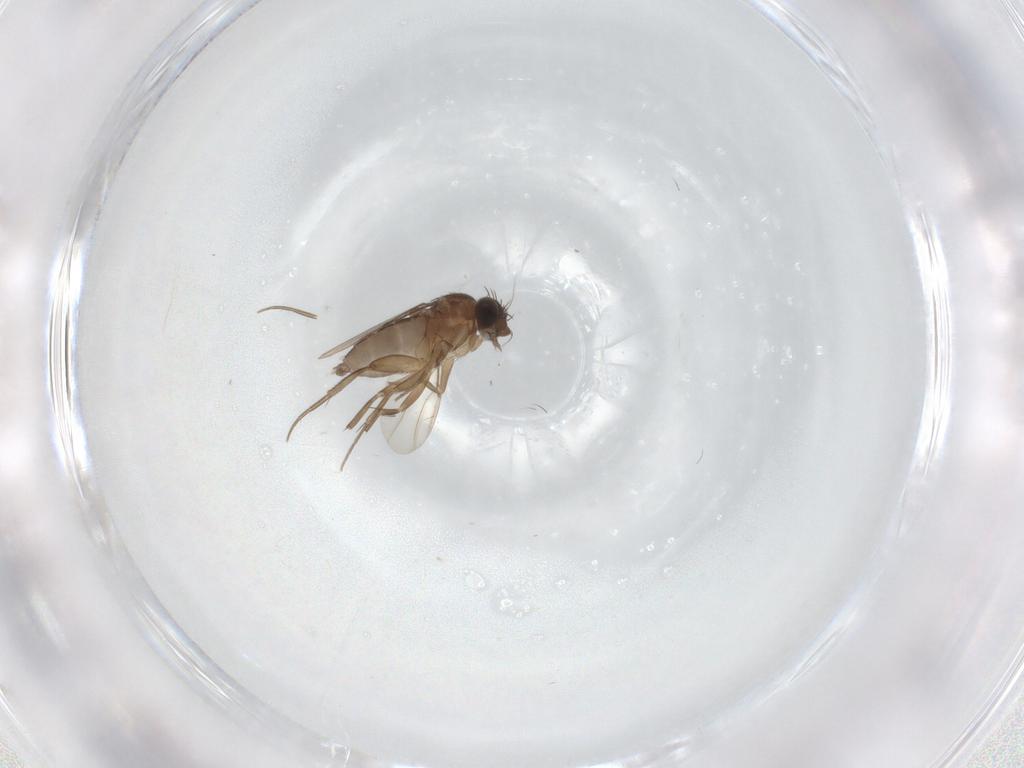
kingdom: Animalia
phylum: Arthropoda
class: Insecta
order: Diptera
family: Phoridae
